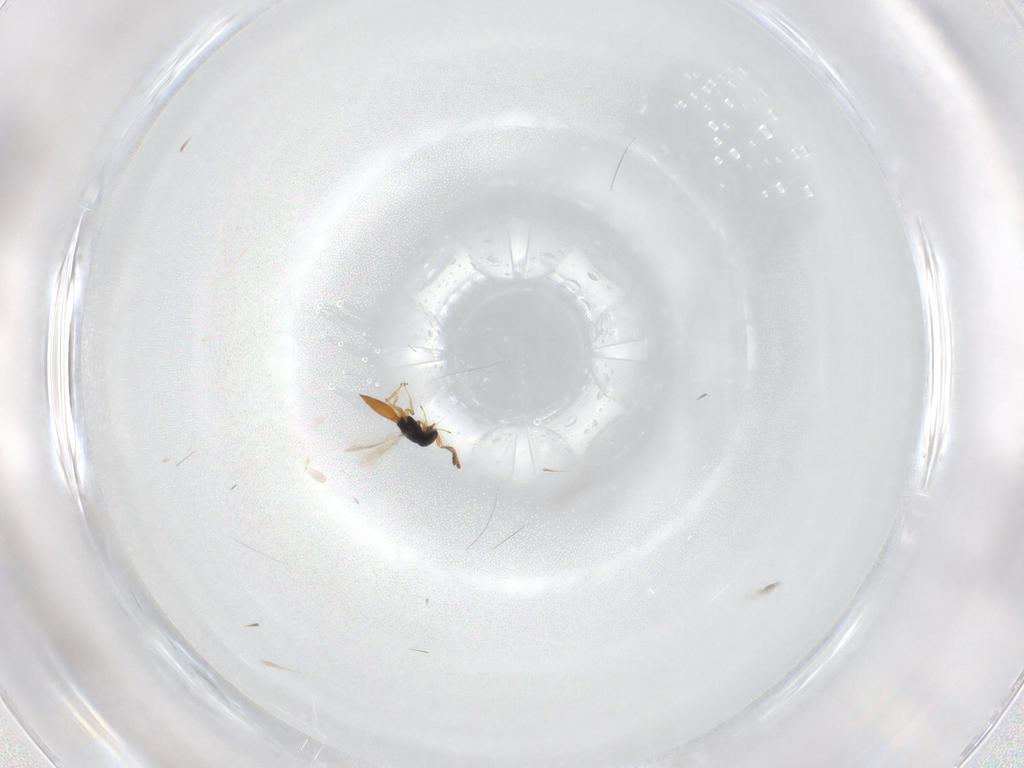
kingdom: Animalia
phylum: Arthropoda
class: Insecta
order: Hymenoptera
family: Scelionidae
